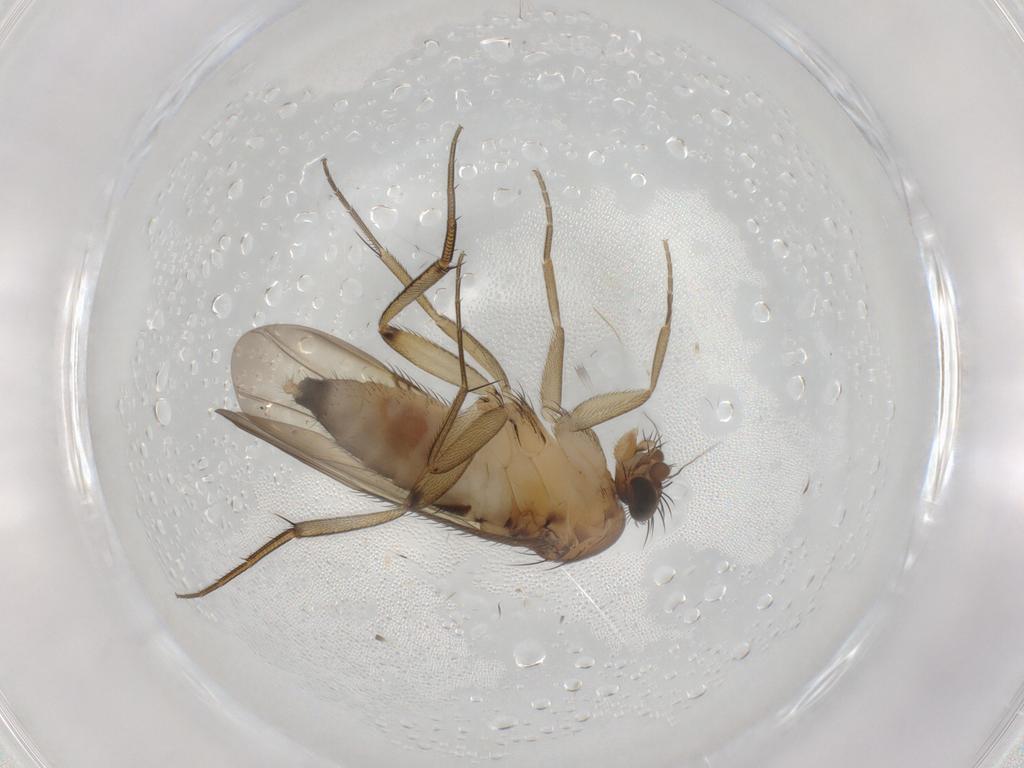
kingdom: Animalia
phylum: Arthropoda
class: Insecta
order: Diptera
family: Phoridae
